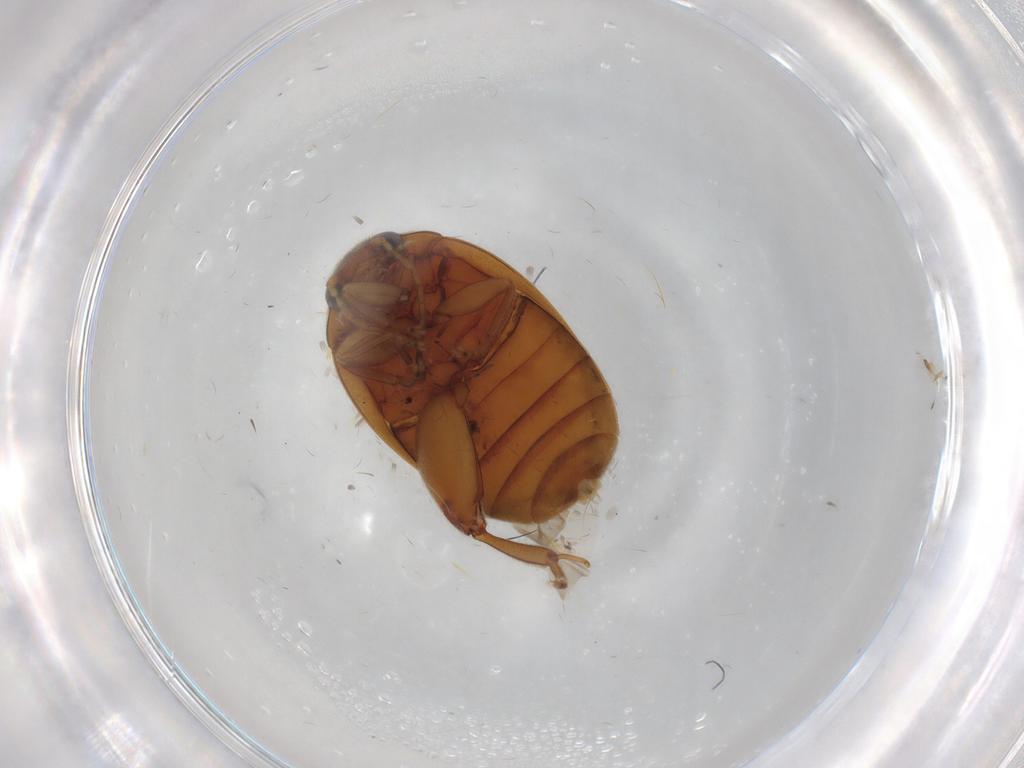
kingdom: Animalia
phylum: Arthropoda
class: Insecta
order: Coleoptera
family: Scirtidae
